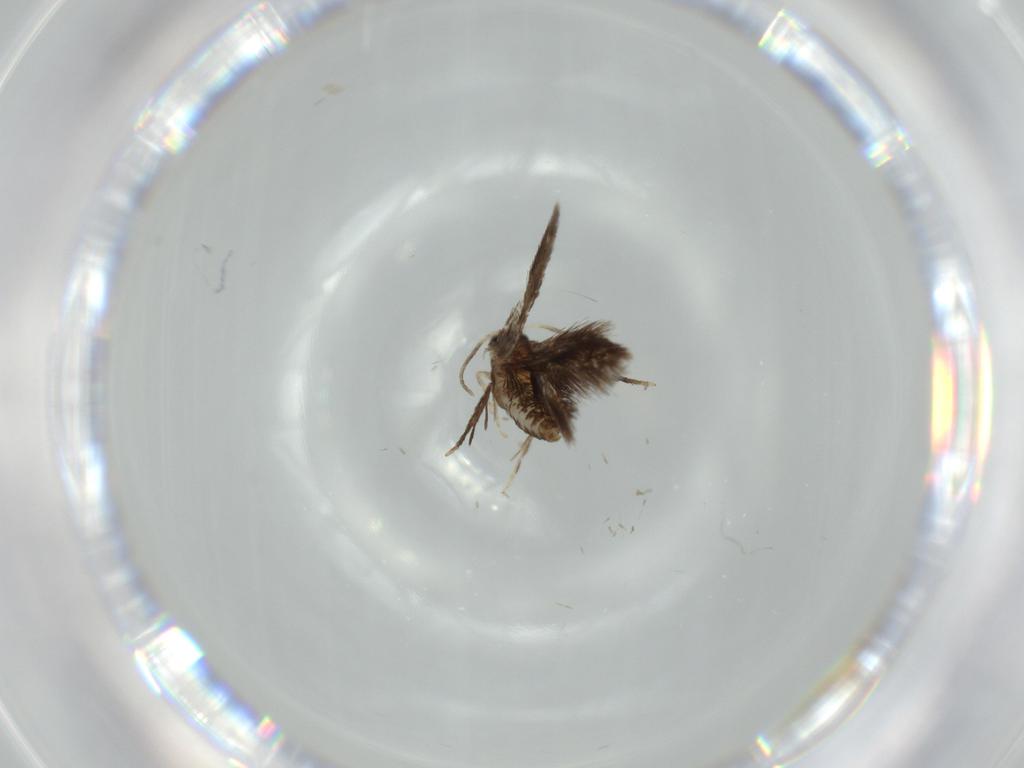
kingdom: Animalia
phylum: Arthropoda
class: Insecta
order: Lepidoptera
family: Nepticulidae
